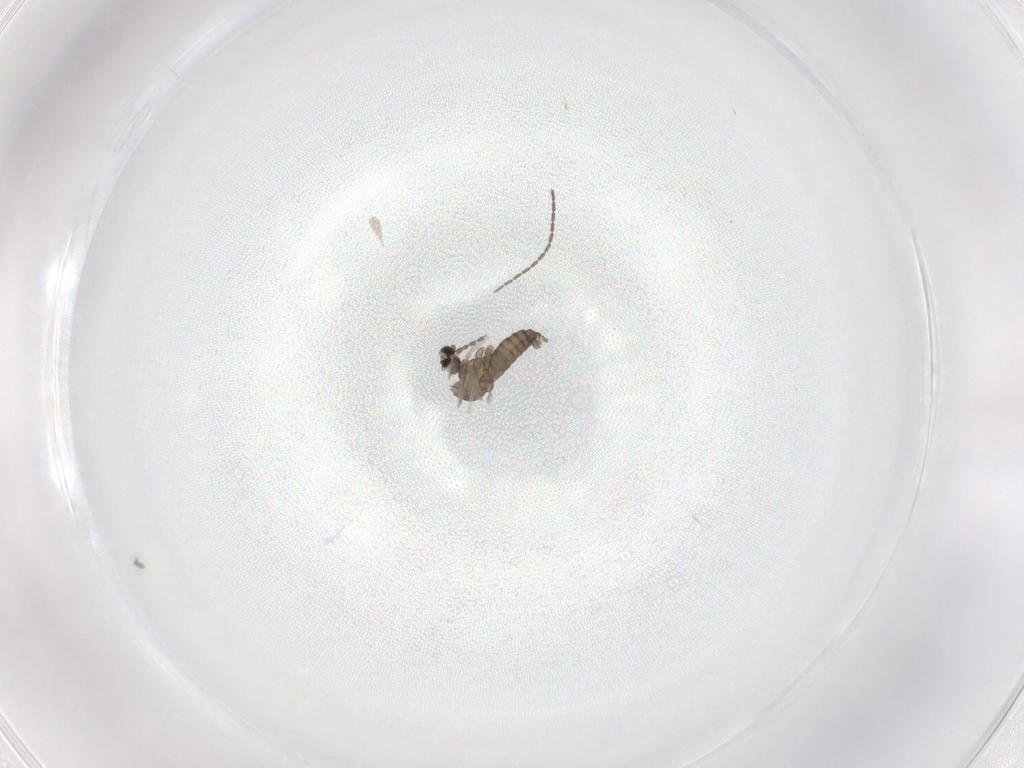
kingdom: Animalia
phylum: Arthropoda
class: Insecta
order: Diptera
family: Cecidomyiidae
